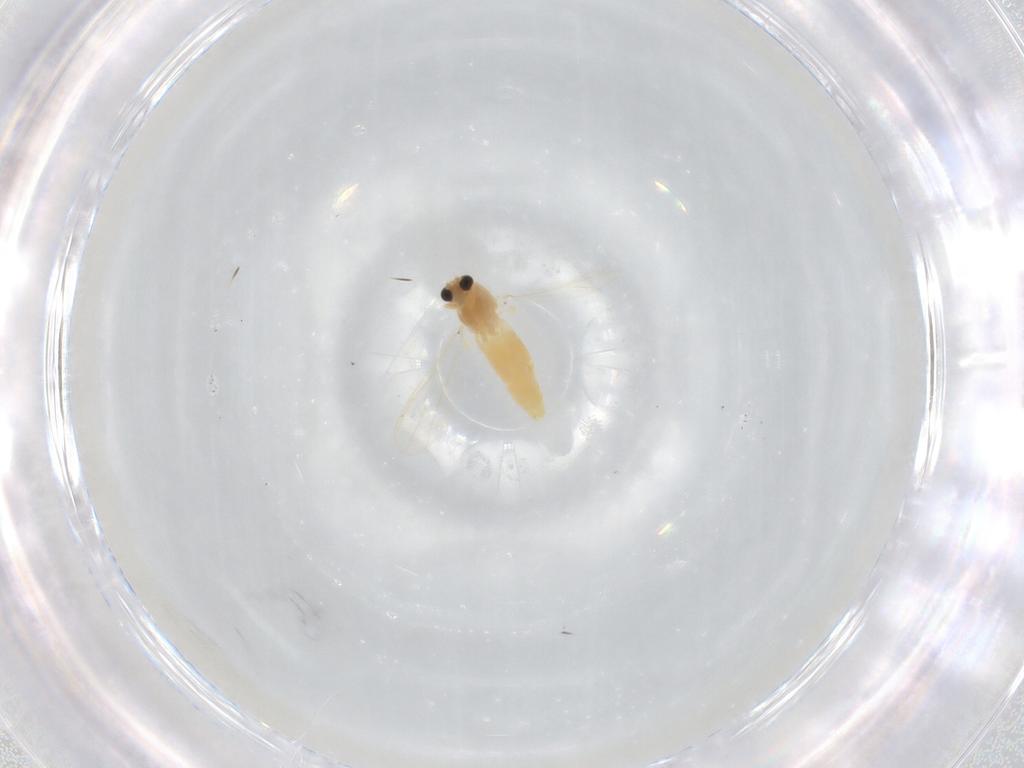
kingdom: Animalia
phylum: Arthropoda
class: Insecta
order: Diptera
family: Chironomidae
